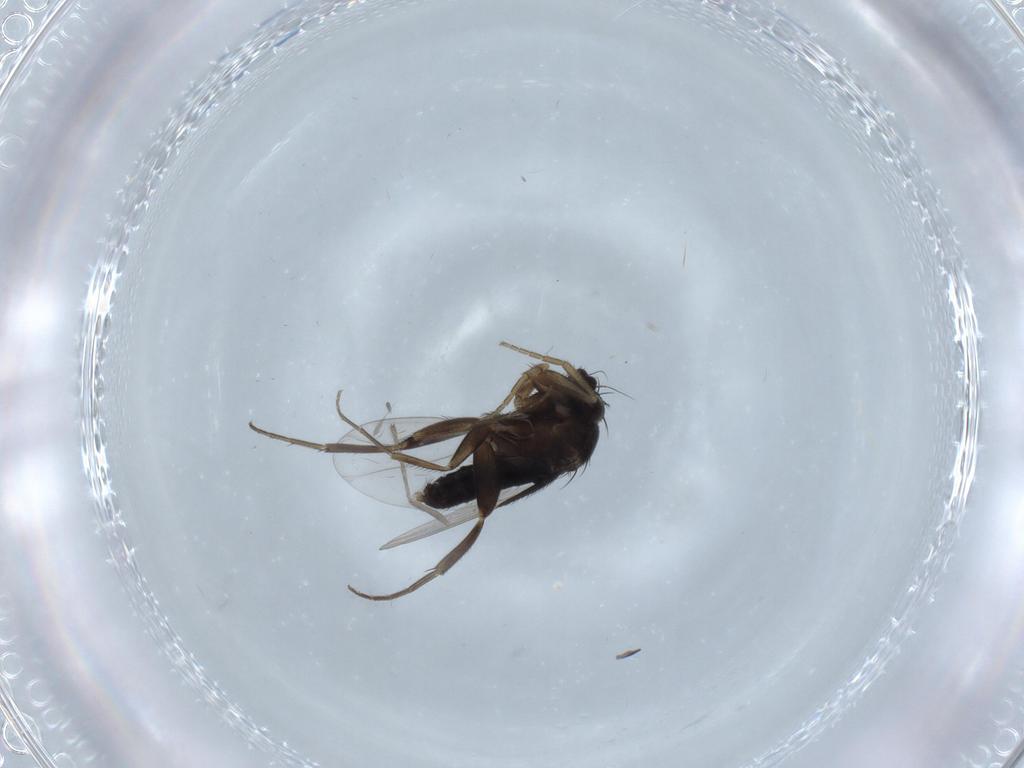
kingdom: Animalia
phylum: Arthropoda
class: Insecta
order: Diptera
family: Phoridae
